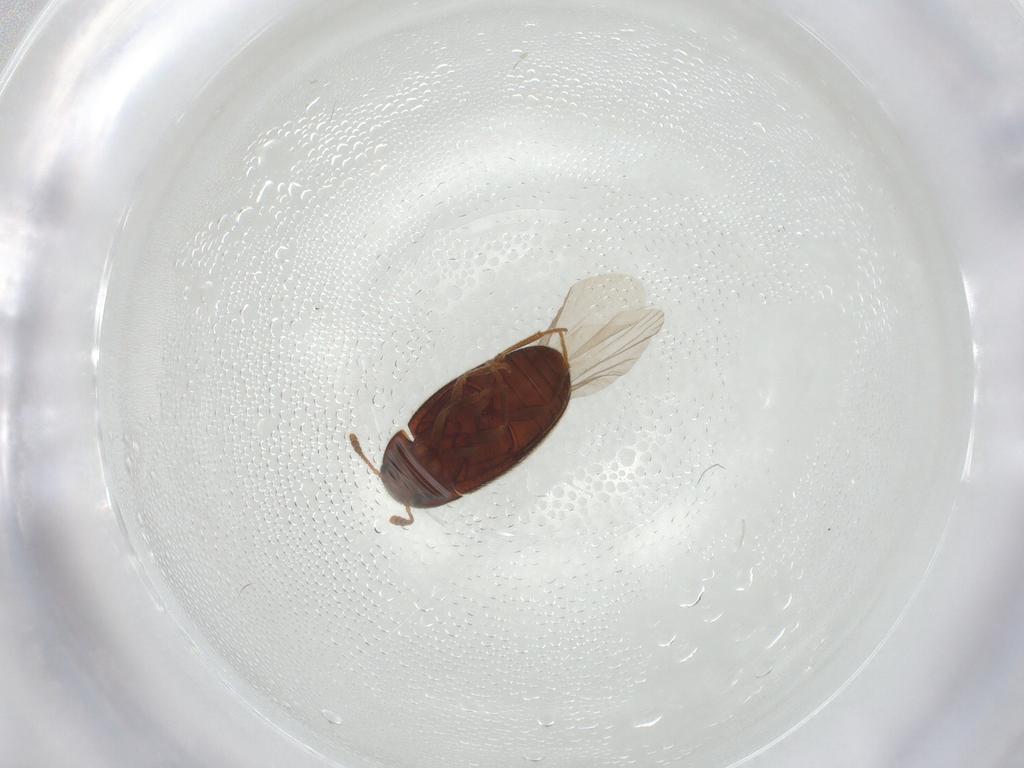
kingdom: Animalia
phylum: Arthropoda
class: Insecta
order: Coleoptera
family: Mycetophagidae
